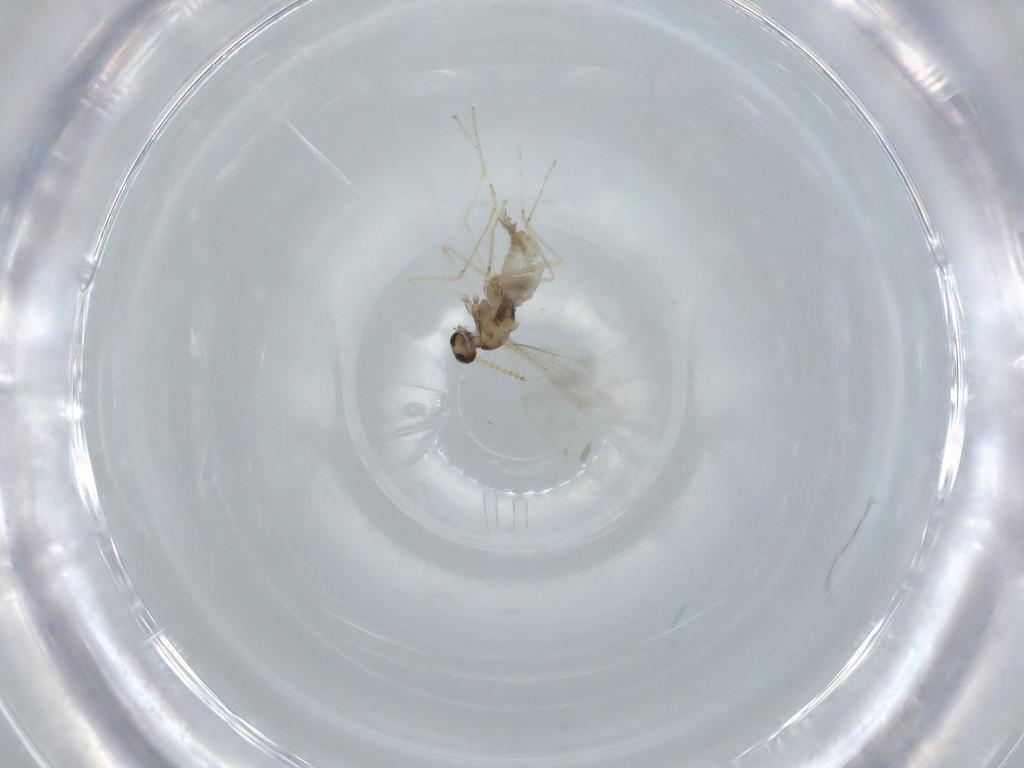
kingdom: Animalia
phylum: Arthropoda
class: Insecta
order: Diptera
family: Cecidomyiidae
